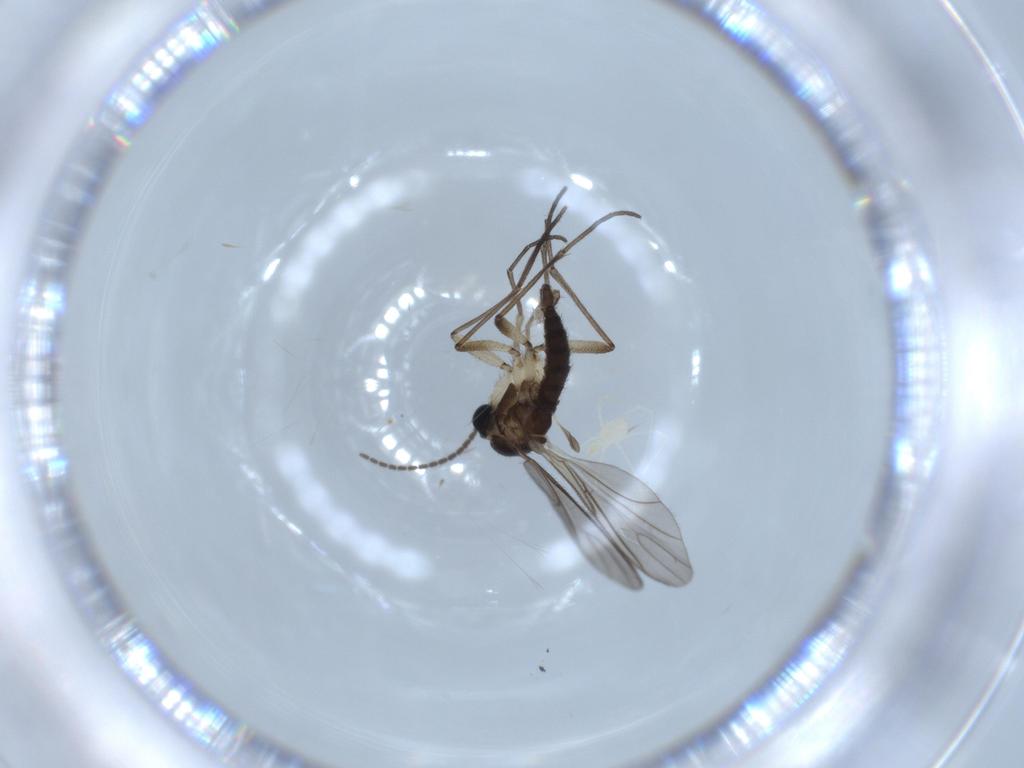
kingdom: Animalia
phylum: Arthropoda
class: Insecta
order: Diptera
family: Sciaridae
